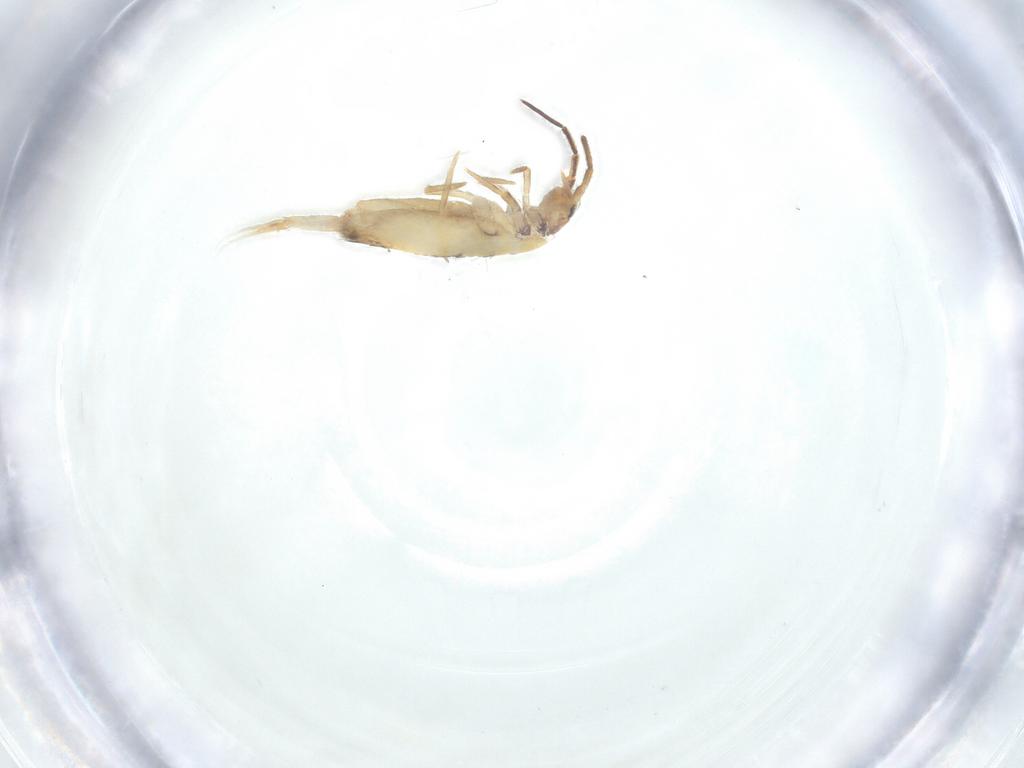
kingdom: Animalia
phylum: Arthropoda
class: Collembola
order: Entomobryomorpha
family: Entomobryidae
